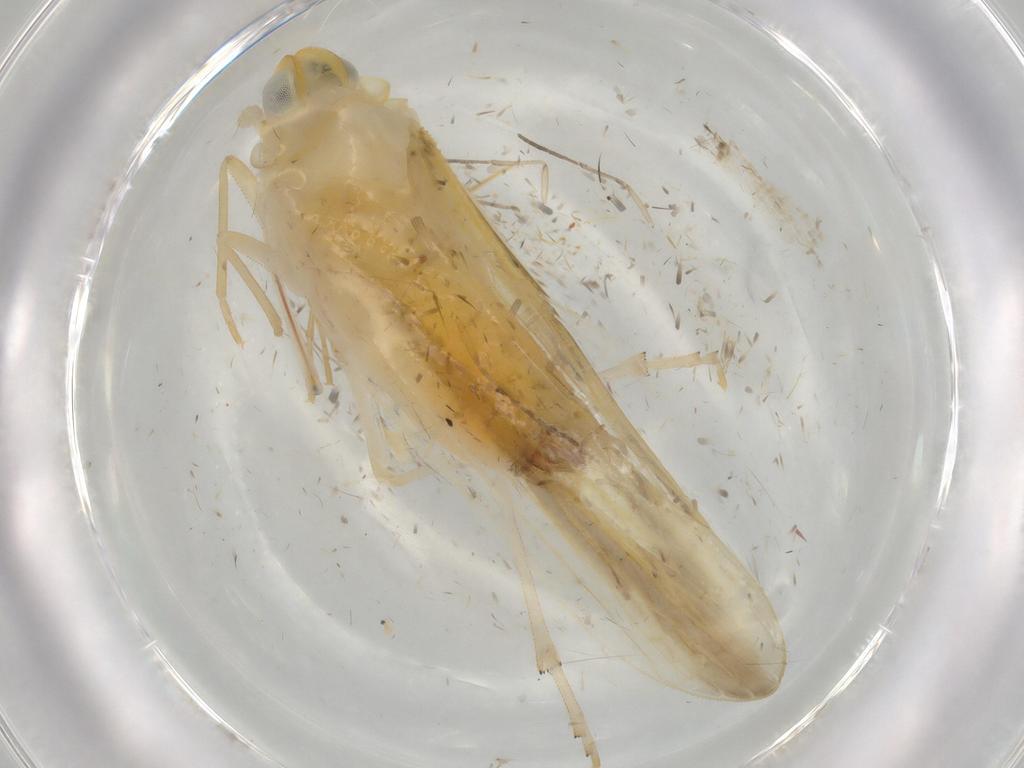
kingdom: Animalia
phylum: Arthropoda
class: Insecta
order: Hemiptera
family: Derbidae
